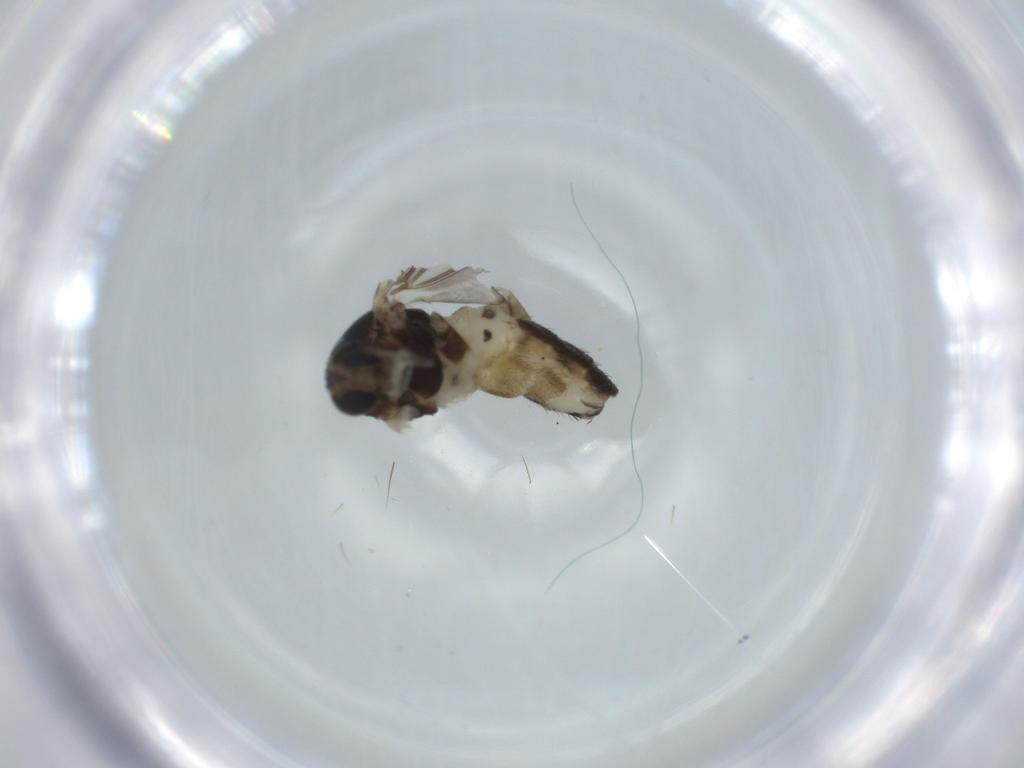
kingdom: Animalia
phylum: Arthropoda
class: Insecta
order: Diptera
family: Sciaridae
